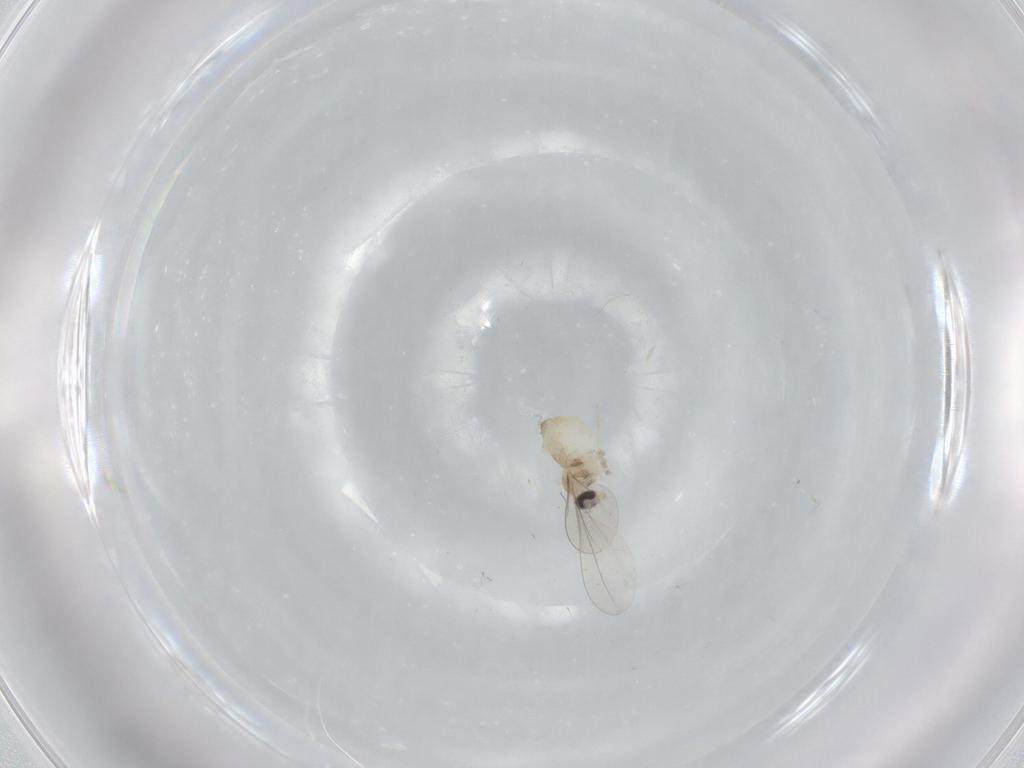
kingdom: Animalia
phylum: Arthropoda
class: Insecta
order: Diptera
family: Cecidomyiidae
